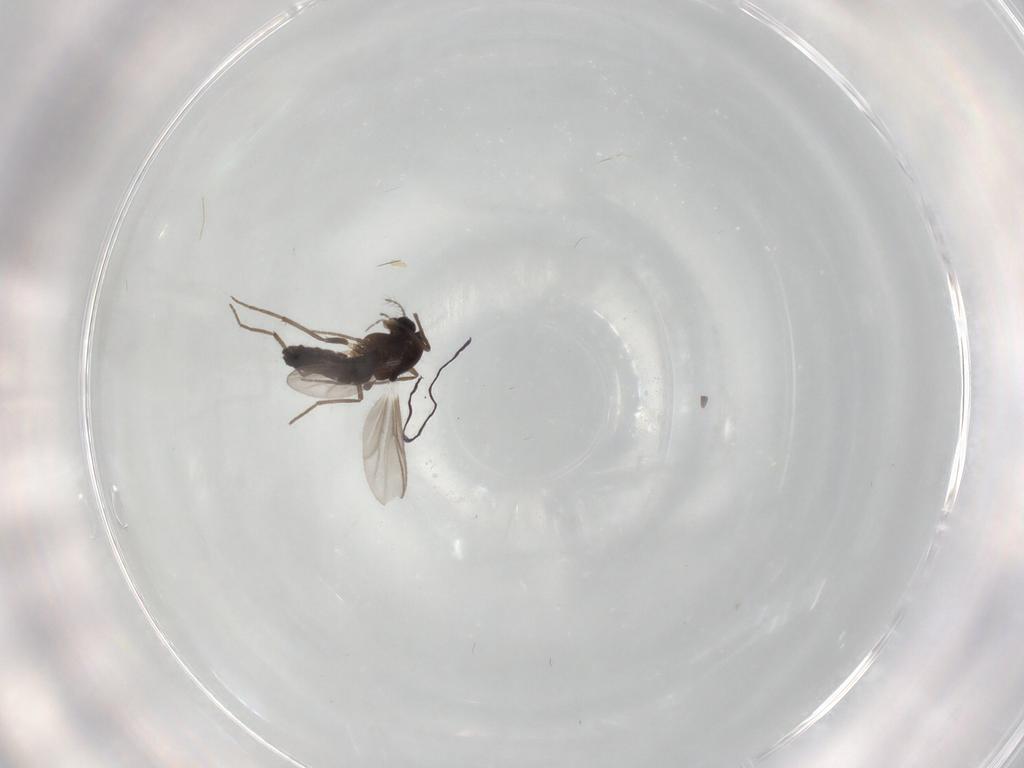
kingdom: Animalia
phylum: Arthropoda
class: Insecta
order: Diptera
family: Chironomidae
